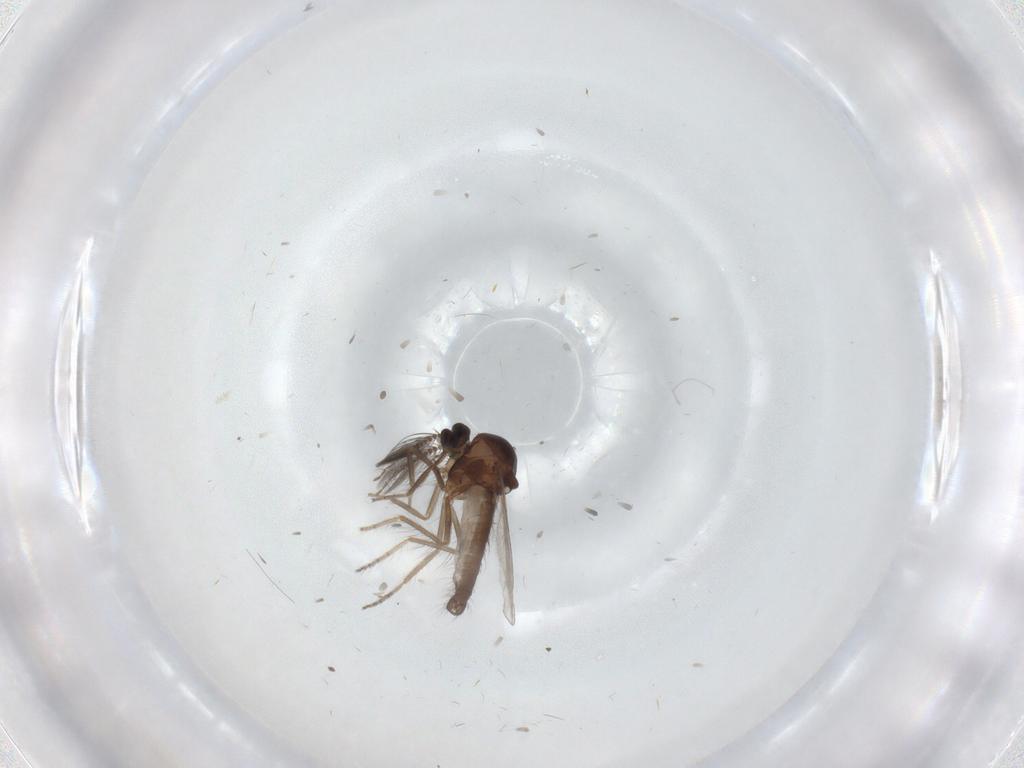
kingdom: Animalia
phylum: Arthropoda
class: Insecta
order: Diptera
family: Ceratopogonidae
